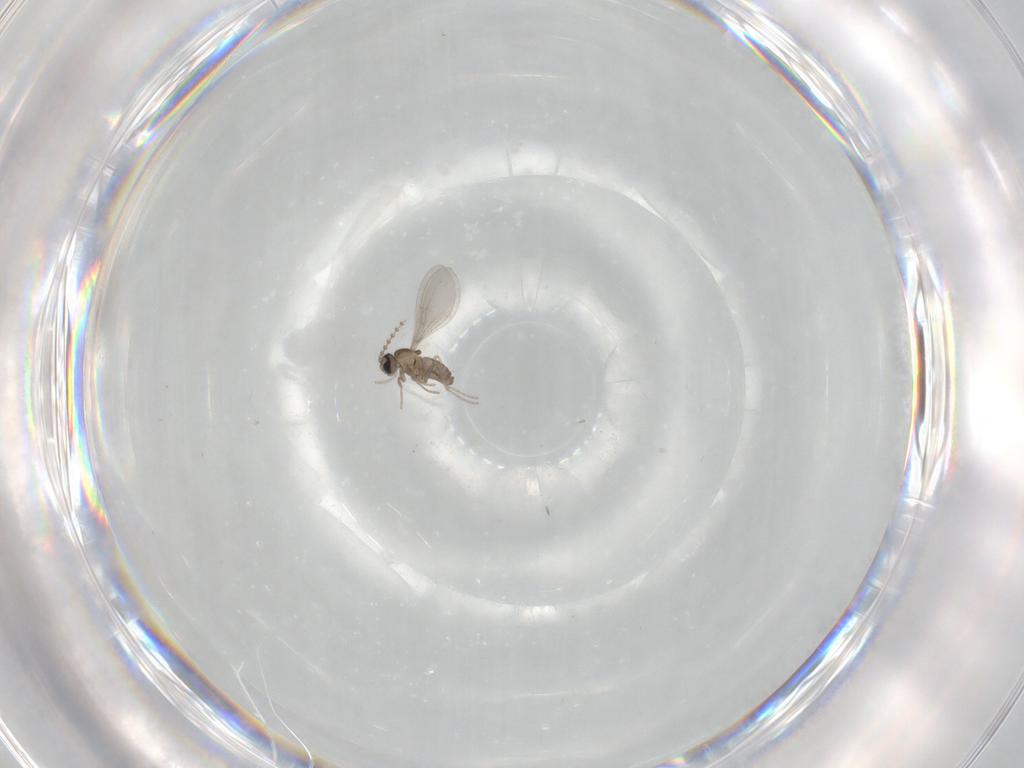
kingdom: Animalia
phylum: Arthropoda
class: Insecta
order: Diptera
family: Cecidomyiidae
